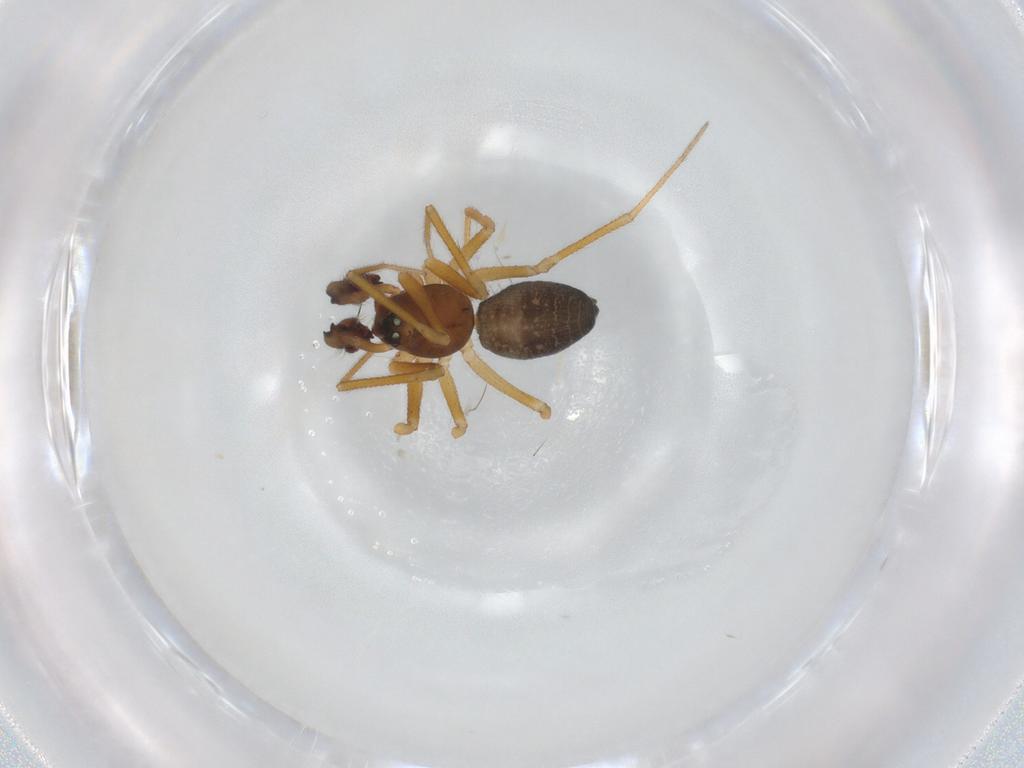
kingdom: Animalia
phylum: Arthropoda
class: Arachnida
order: Araneae
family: Linyphiidae
